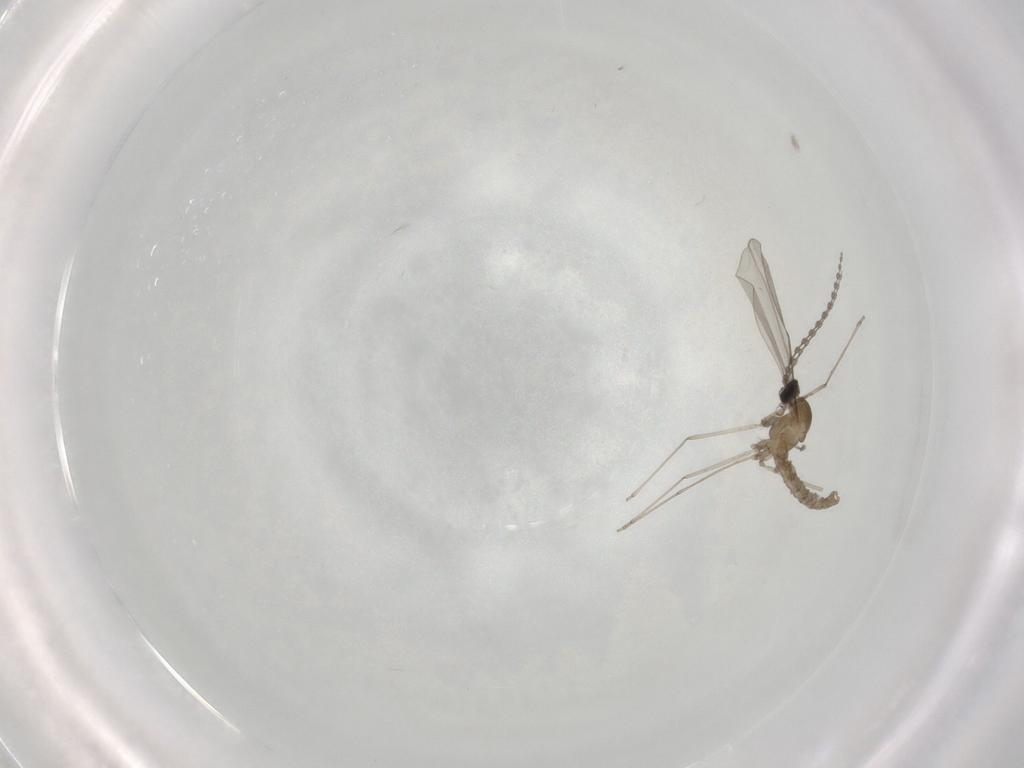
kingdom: Animalia
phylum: Arthropoda
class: Insecta
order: Diptera
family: Cecidomyiidae
